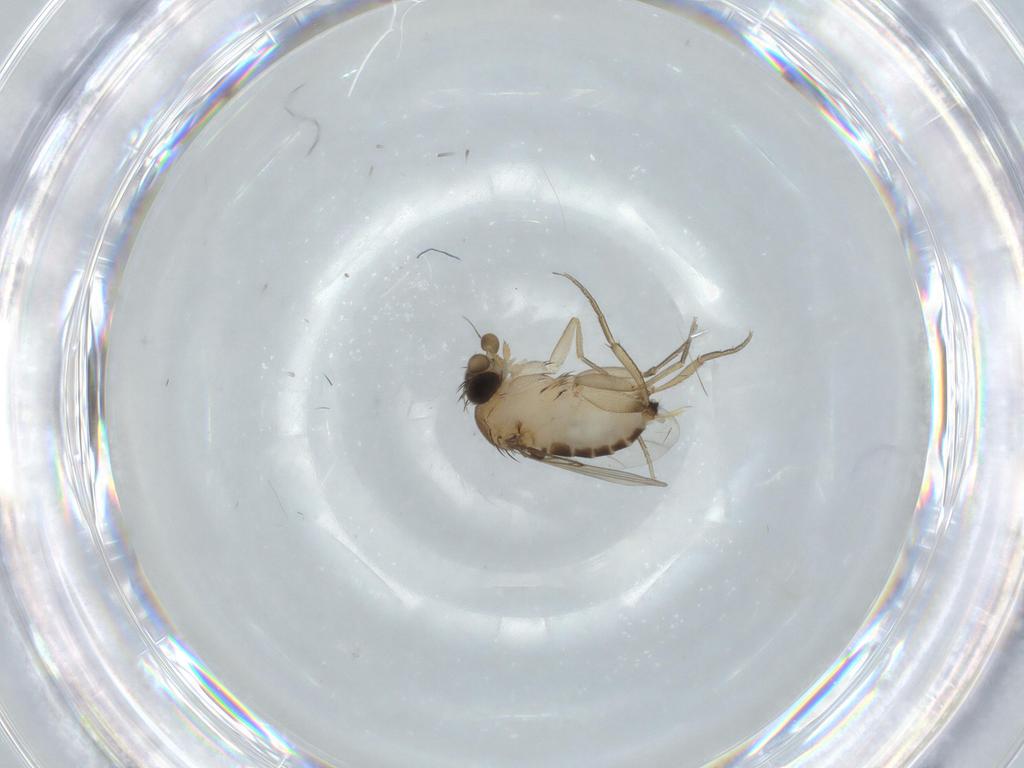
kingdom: Animalia
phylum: Arthropoda
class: Insecta
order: Diptera
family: Phoridae
